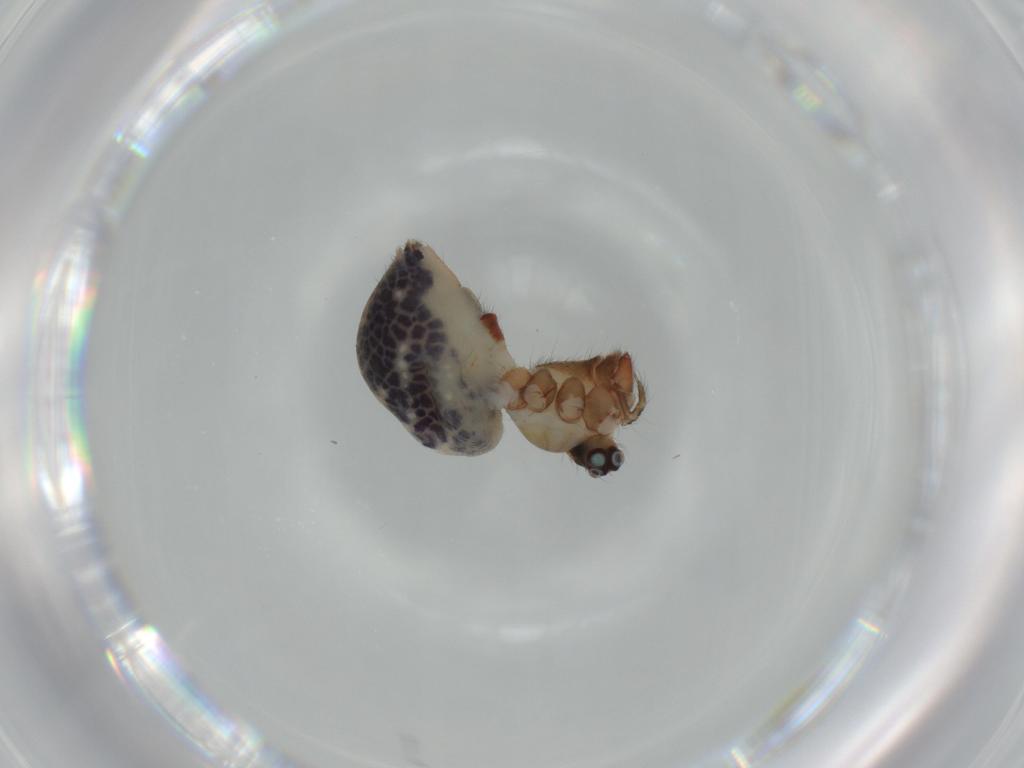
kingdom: Animalia
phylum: Arthropoda
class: Arachnida
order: Araneae
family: Pholcidae
